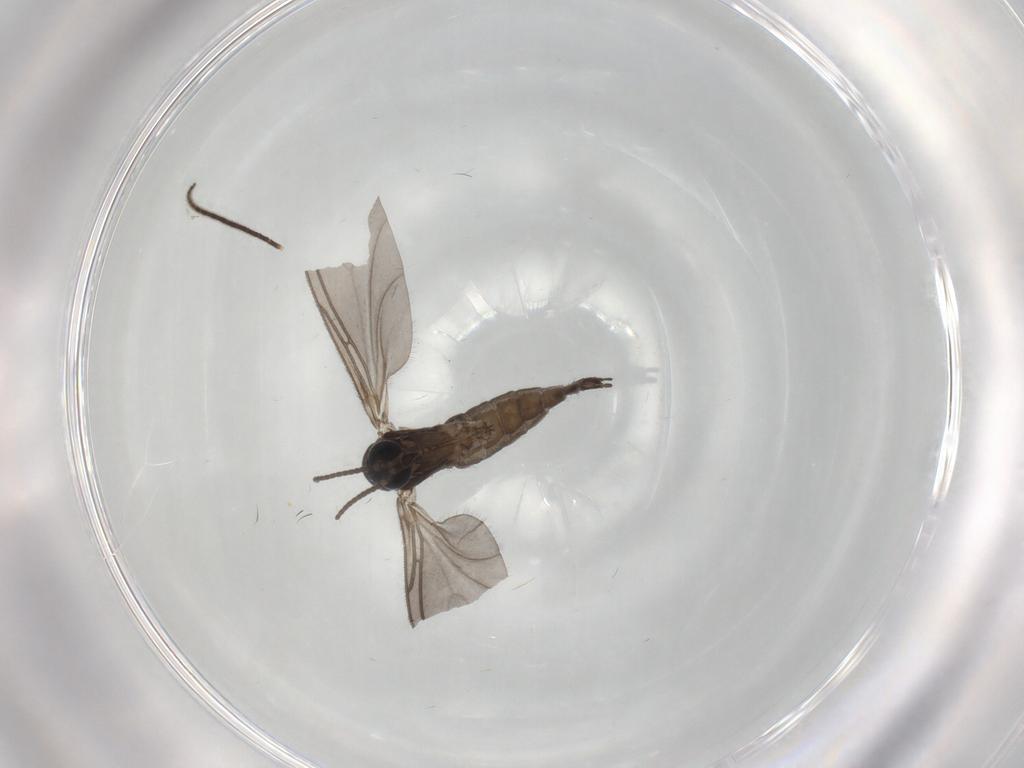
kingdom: Animalia
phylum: Arthropoda
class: Insecta
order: Diptera
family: Sciaridae
